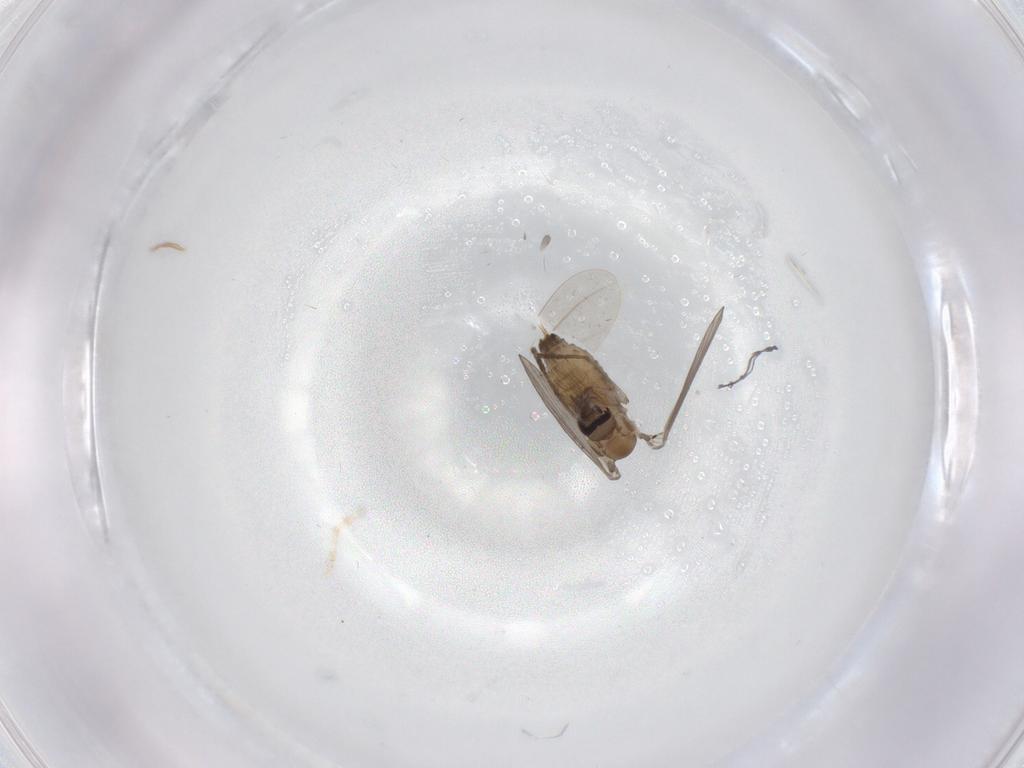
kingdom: Animalia
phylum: Arthropoda
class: Insecta
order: Diptera
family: Psychodidae
